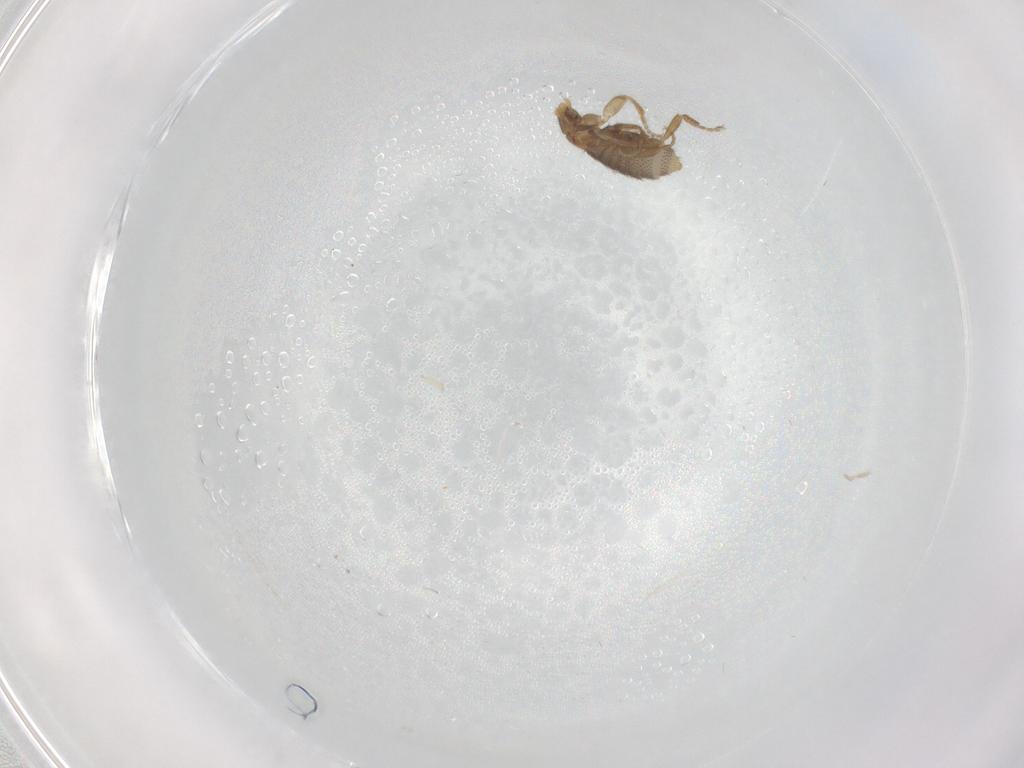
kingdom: Animalia
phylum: Arthropoda
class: Insecta
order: Diptera
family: Phoridae
